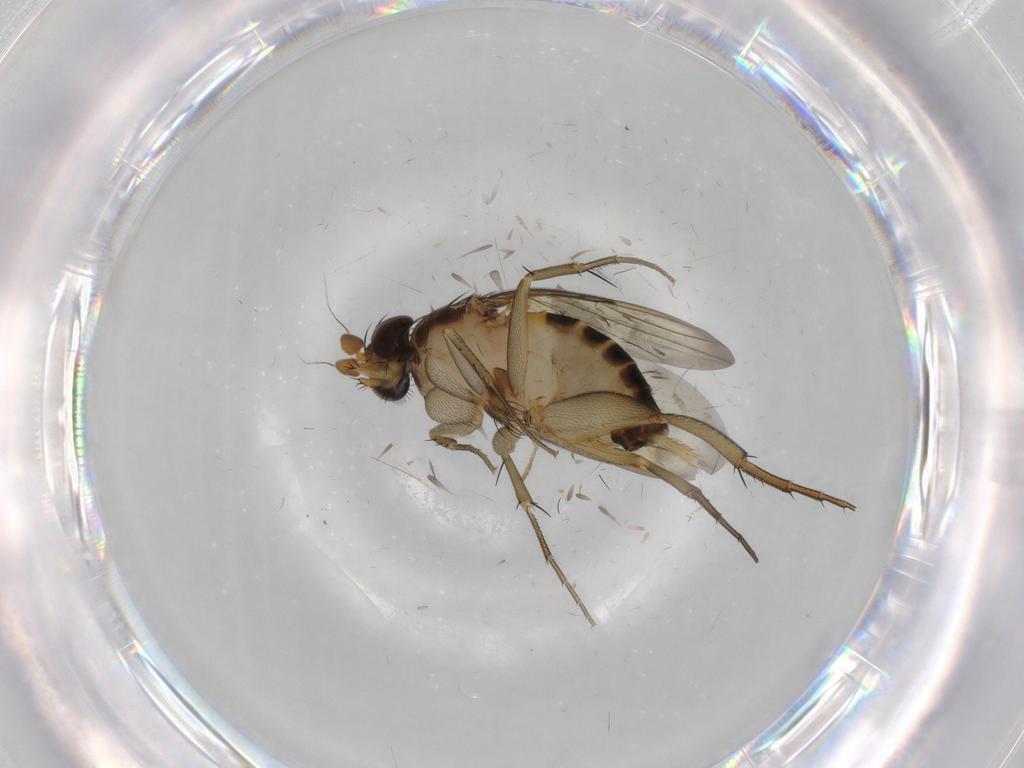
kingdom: Animalia
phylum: Arthropoda
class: Insecta
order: Diptera
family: Phoridae
